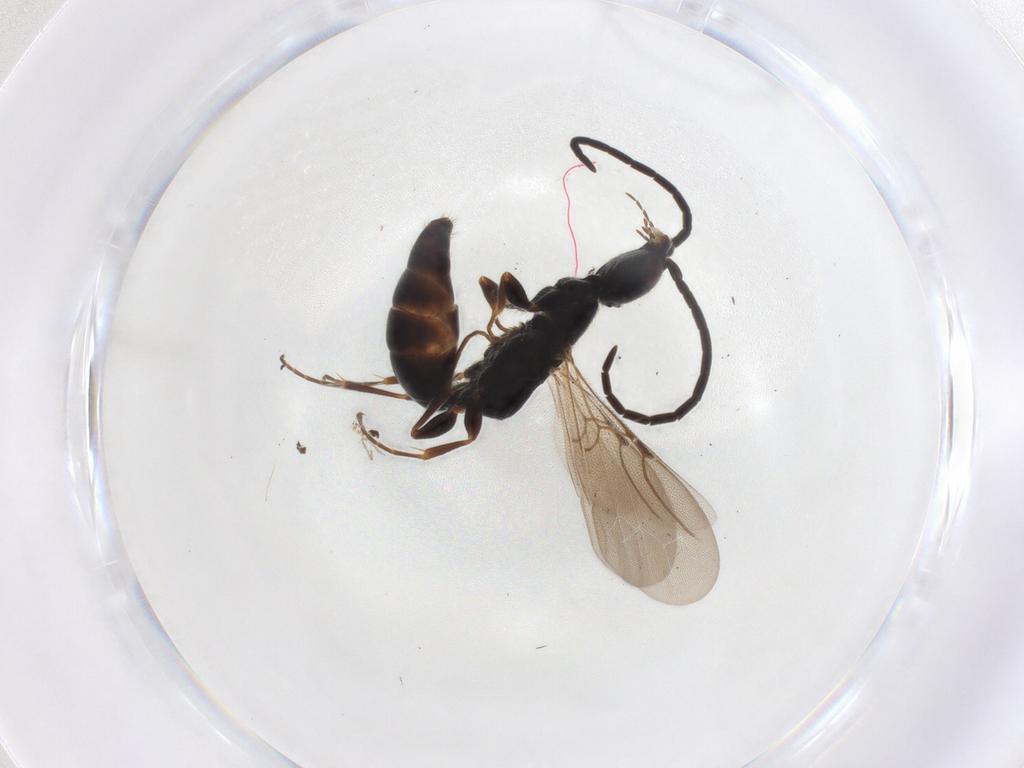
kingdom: Animalia
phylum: Arthropoda
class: Insecta
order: Hymenoptera
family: Bethylidae
